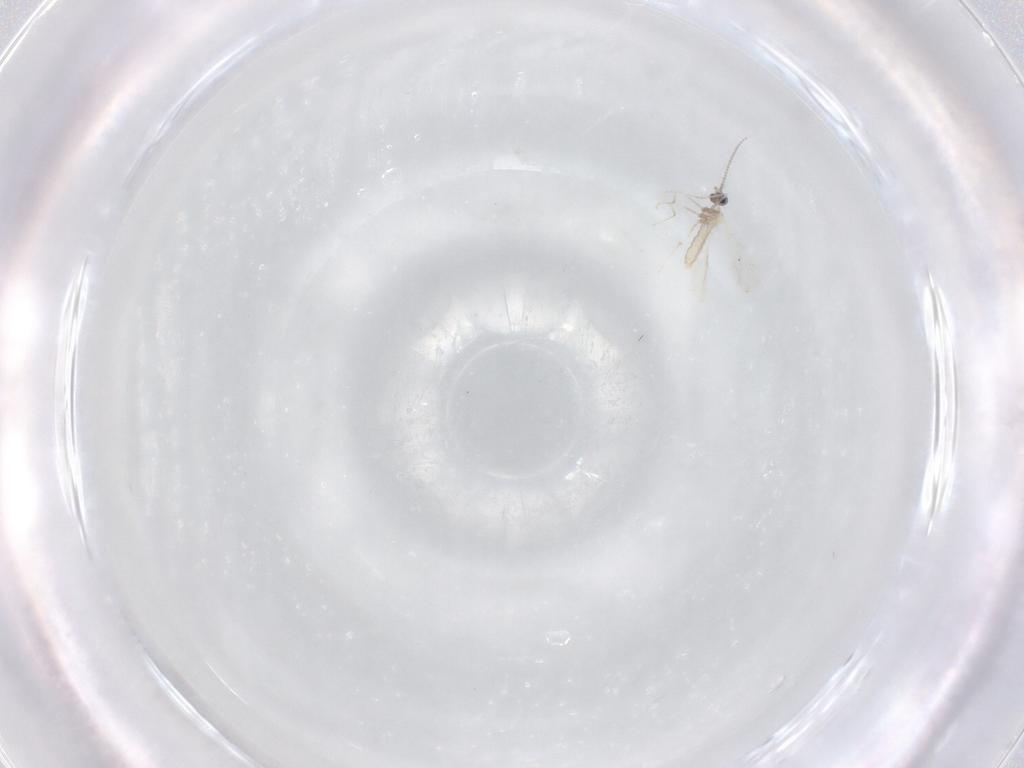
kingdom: Animalia
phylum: Arthropoda
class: Insecta
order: Diptera
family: Cecidomyiidae
